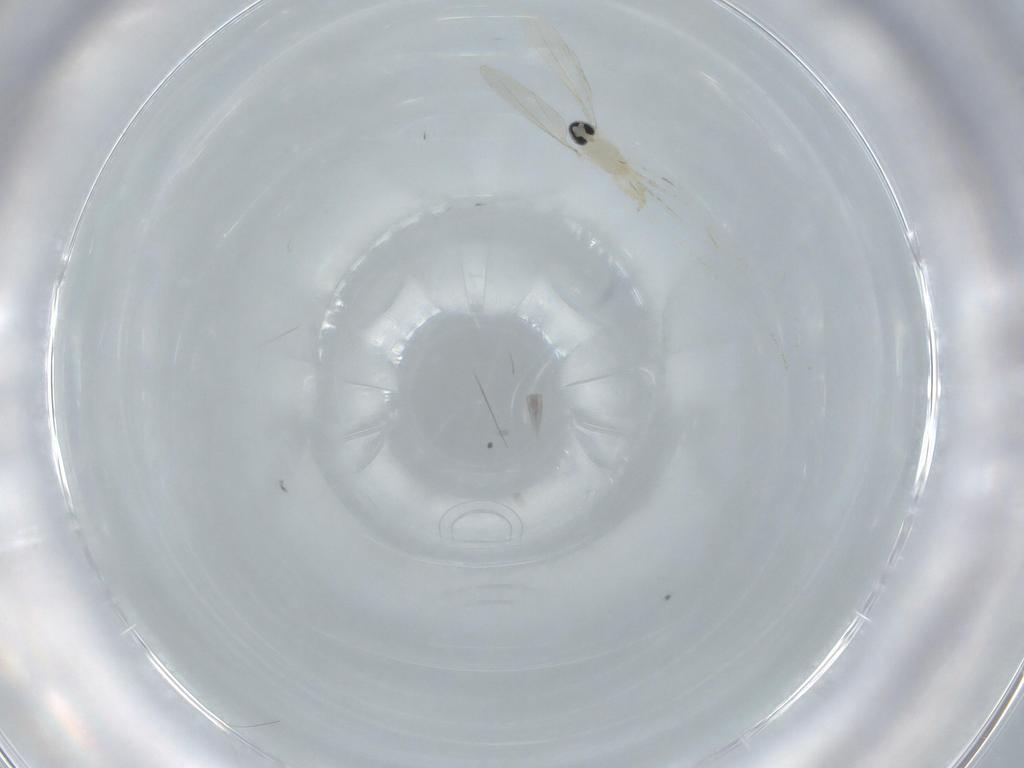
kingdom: Animalia
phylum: Arthropoda
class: Insecta
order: Diptera
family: Cecidomyiidae
